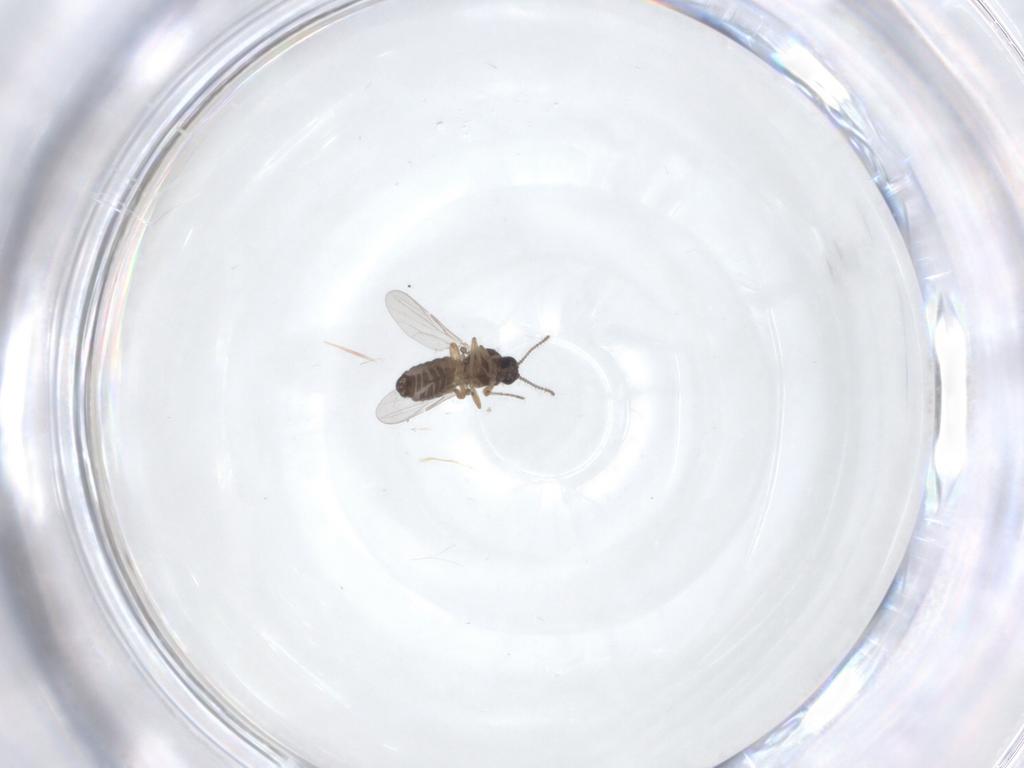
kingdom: Animalia
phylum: Arthropoda
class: Insecta
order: Diptera
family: Ceratopogonidae
